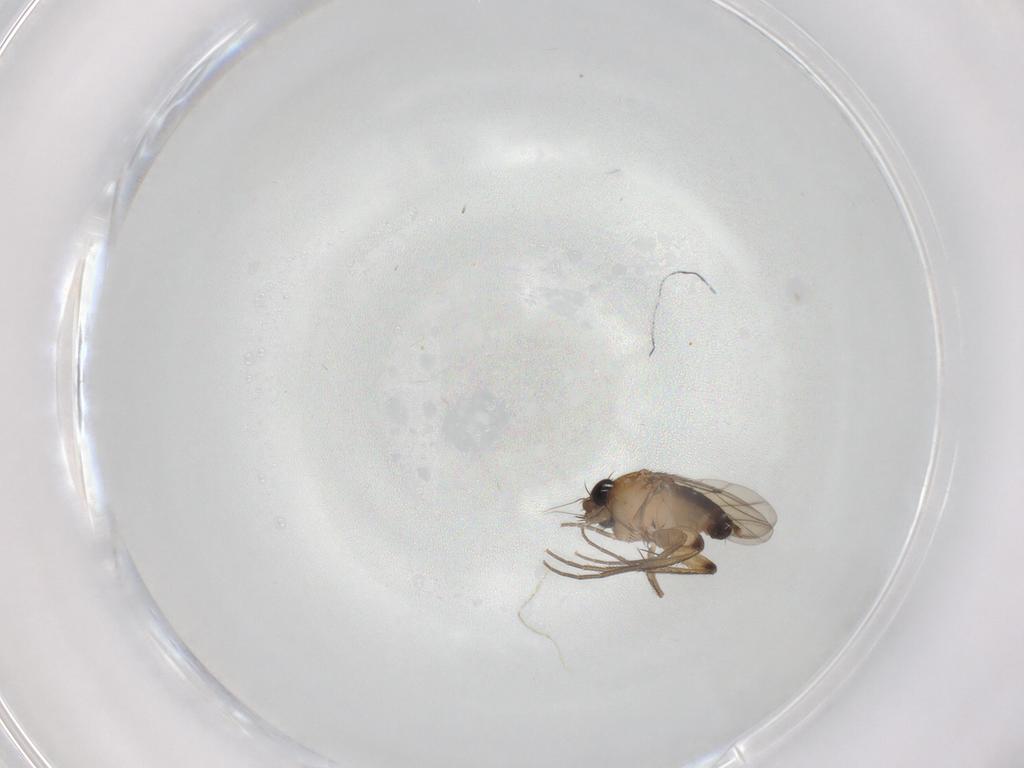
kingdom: Animalia
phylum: Arthropoda
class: Insecta
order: Diptera
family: Phoridae
